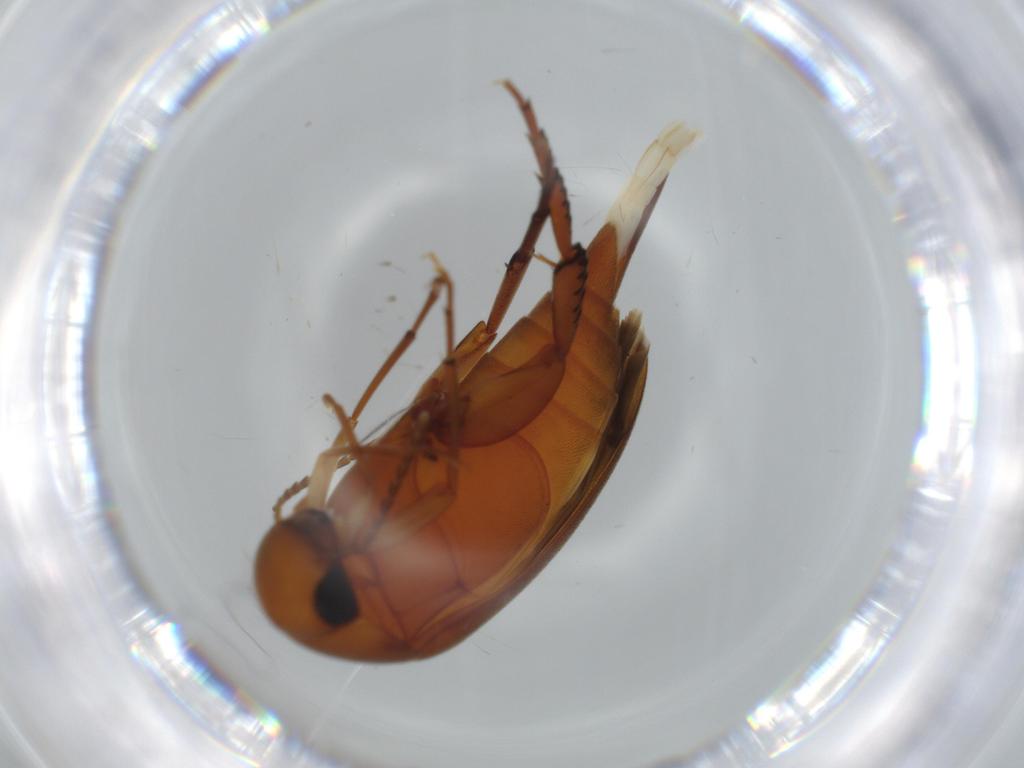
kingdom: Animalia
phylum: Arthropoda
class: Insecta
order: Coleoptera
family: Mordellidae
